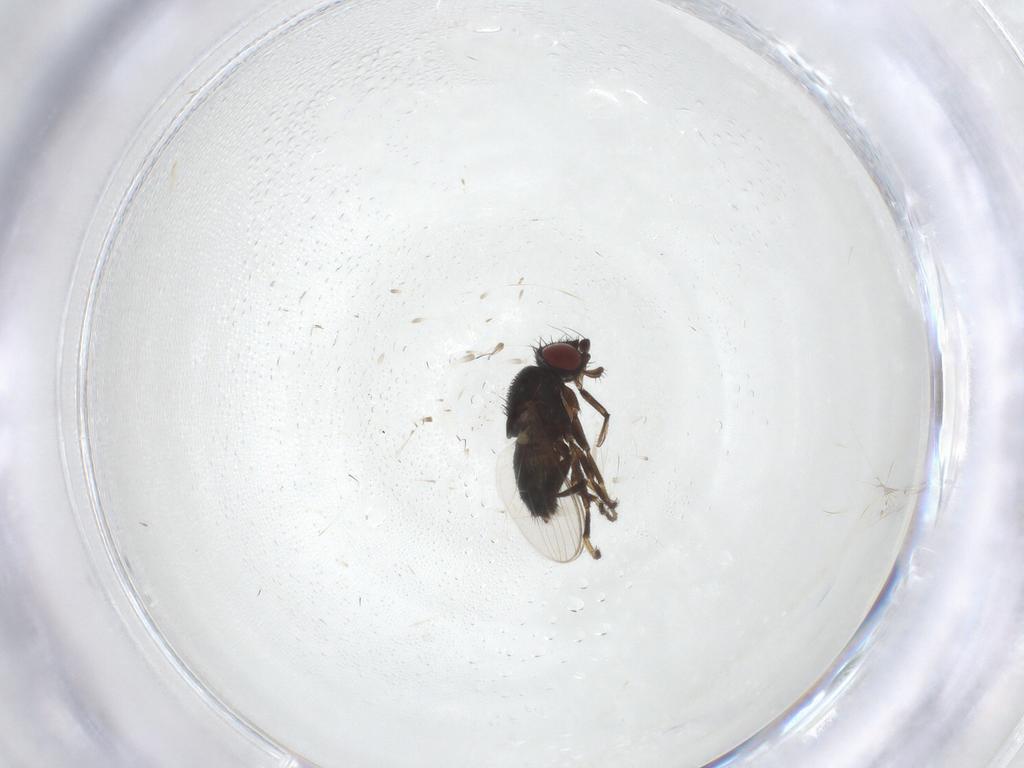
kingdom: Animalia
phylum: Arthropoda
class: Insecta
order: Diptera
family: Milichiidae
